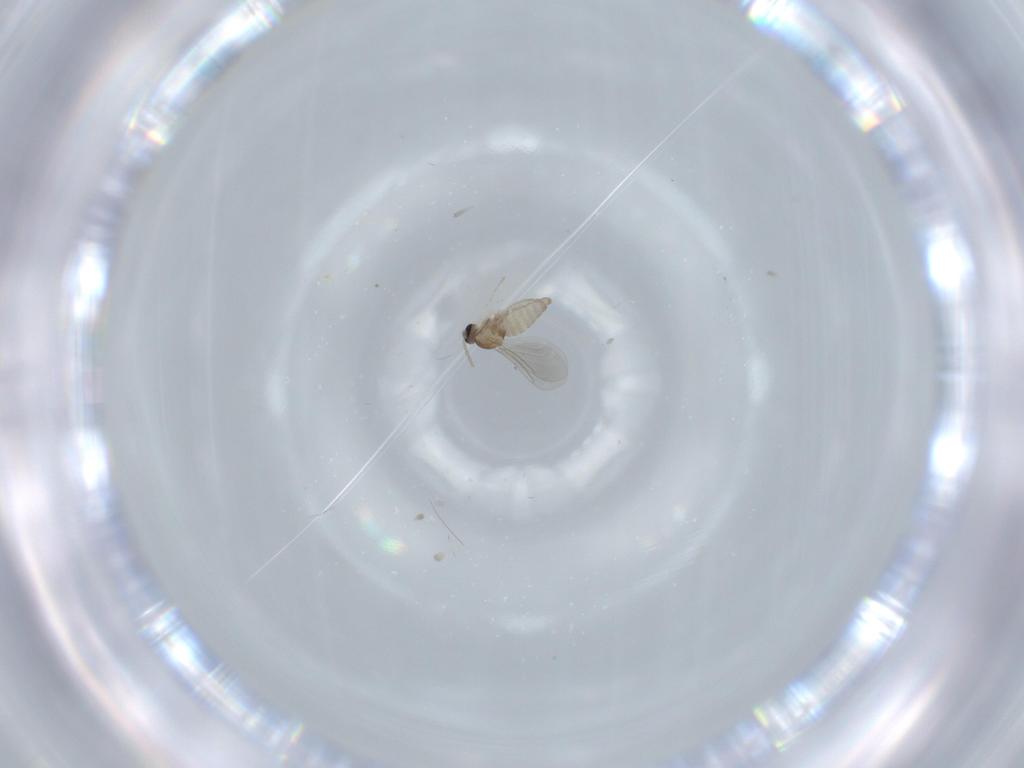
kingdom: Animalia
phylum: Arthropoda
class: Insecta
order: Diptera
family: Cecidomyiidae
